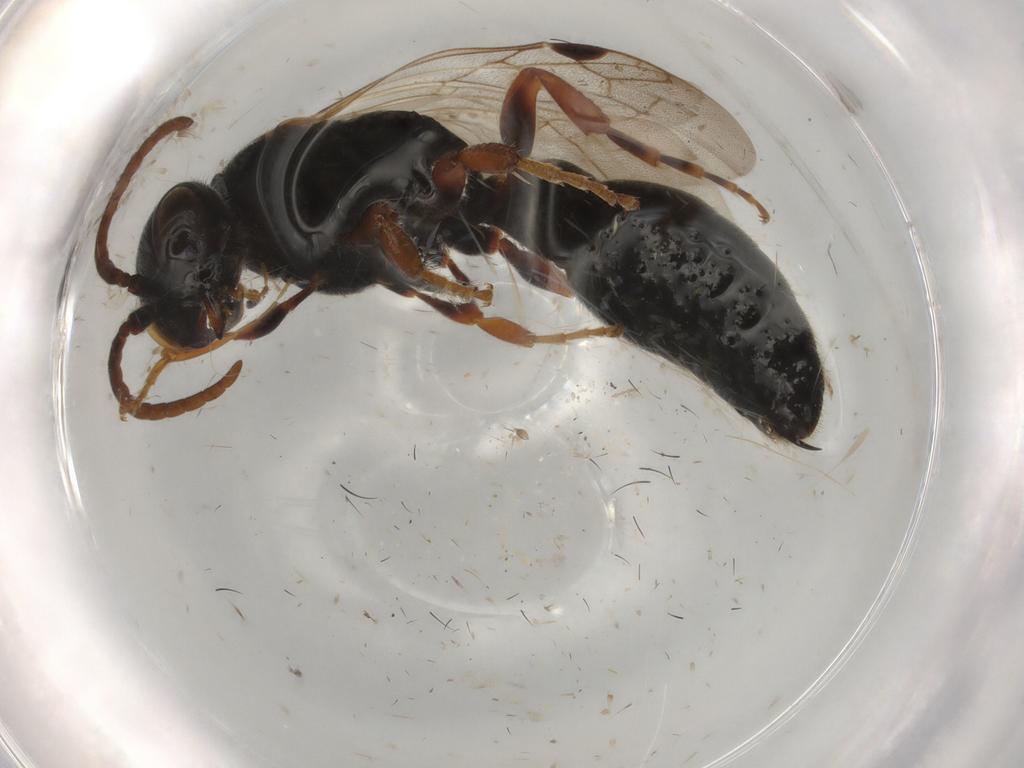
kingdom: Animalia
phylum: Arthropoda
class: Insecta
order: Hymenoptera
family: Tiphiidae
